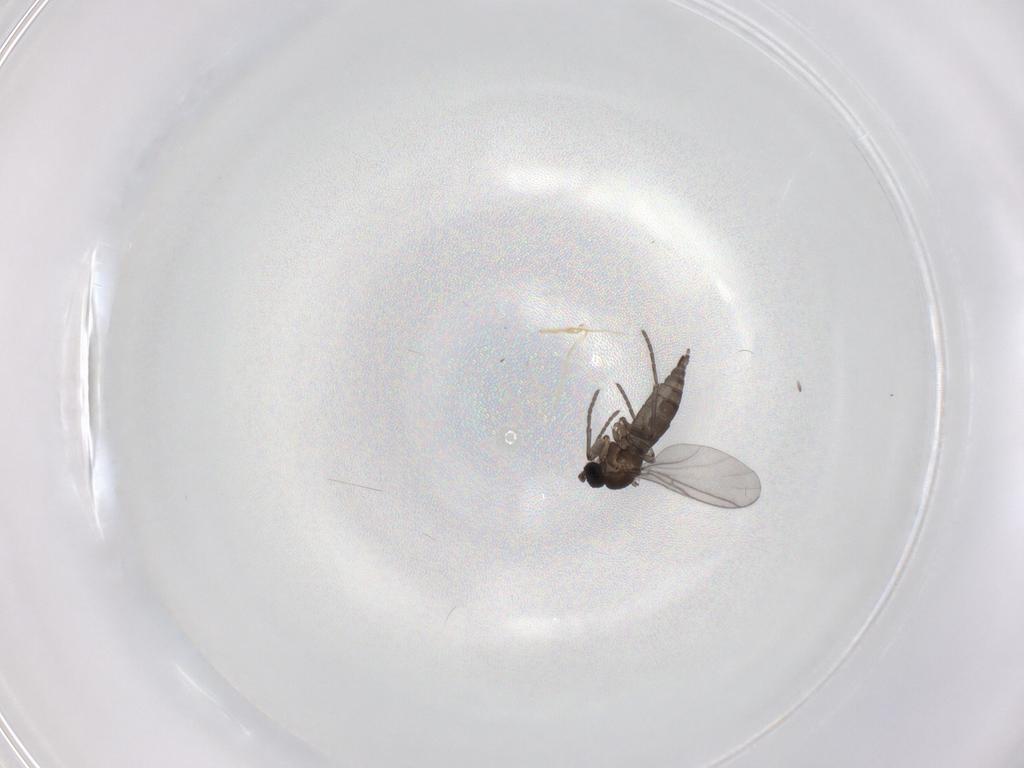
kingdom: Animalia
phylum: Arthropoda
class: Insecta
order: Diptera
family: Sciaridae
